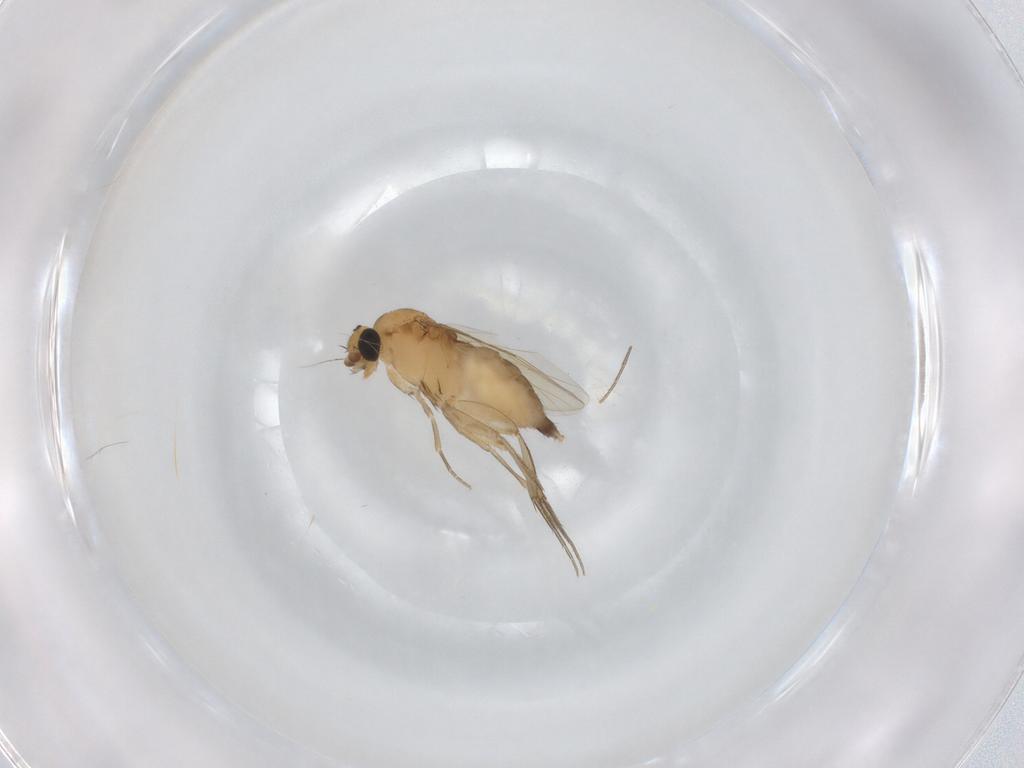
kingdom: Animalia
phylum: Arthropoda
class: Insecta
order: Diptera
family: Phoridae
